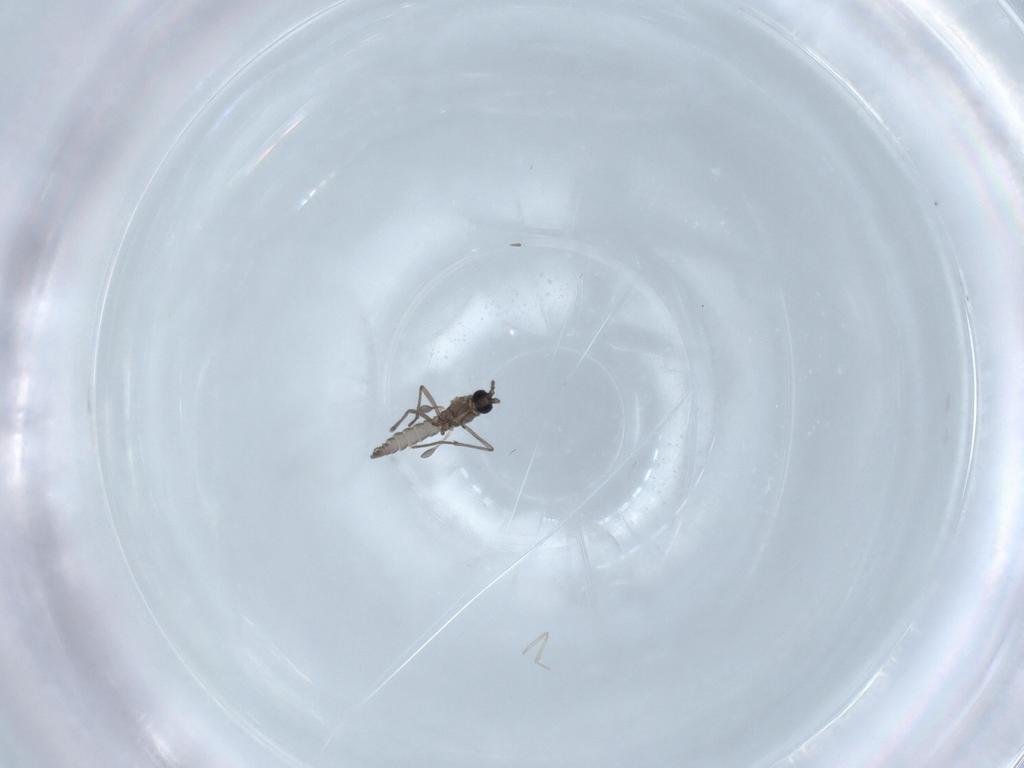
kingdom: Animalia
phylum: Arthropoda
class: Insecta
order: Diptera
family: Sciaridae
